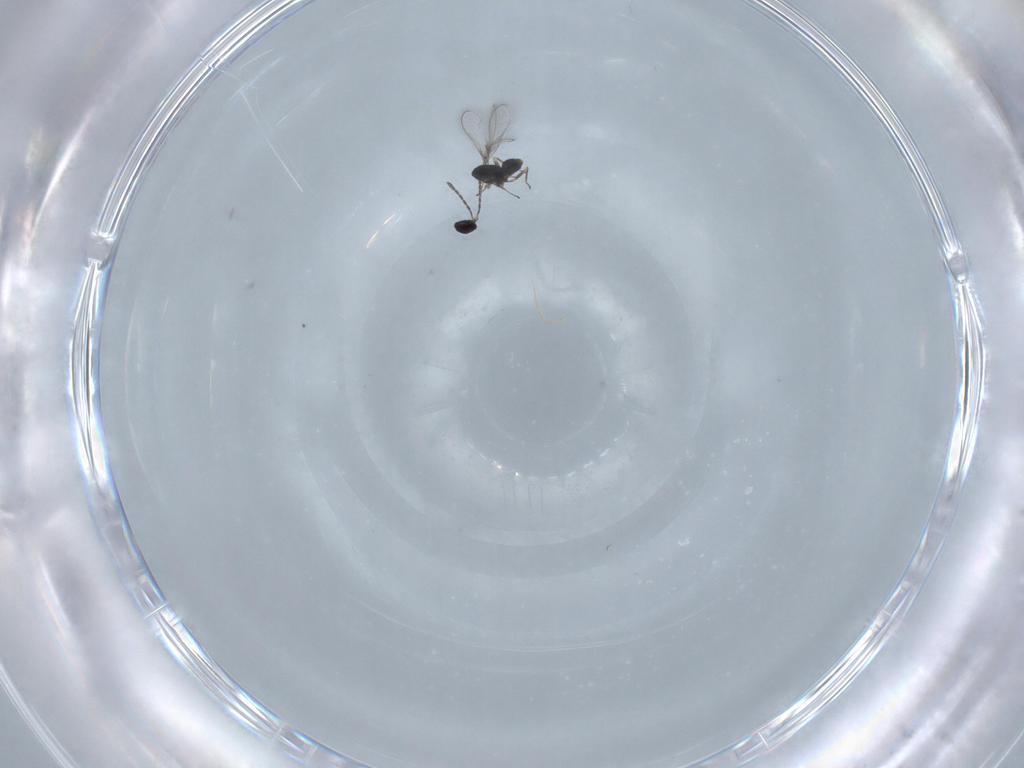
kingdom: Animalia
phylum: Arthropoda
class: Insecta
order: Hymenoptera
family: Mymaridae
